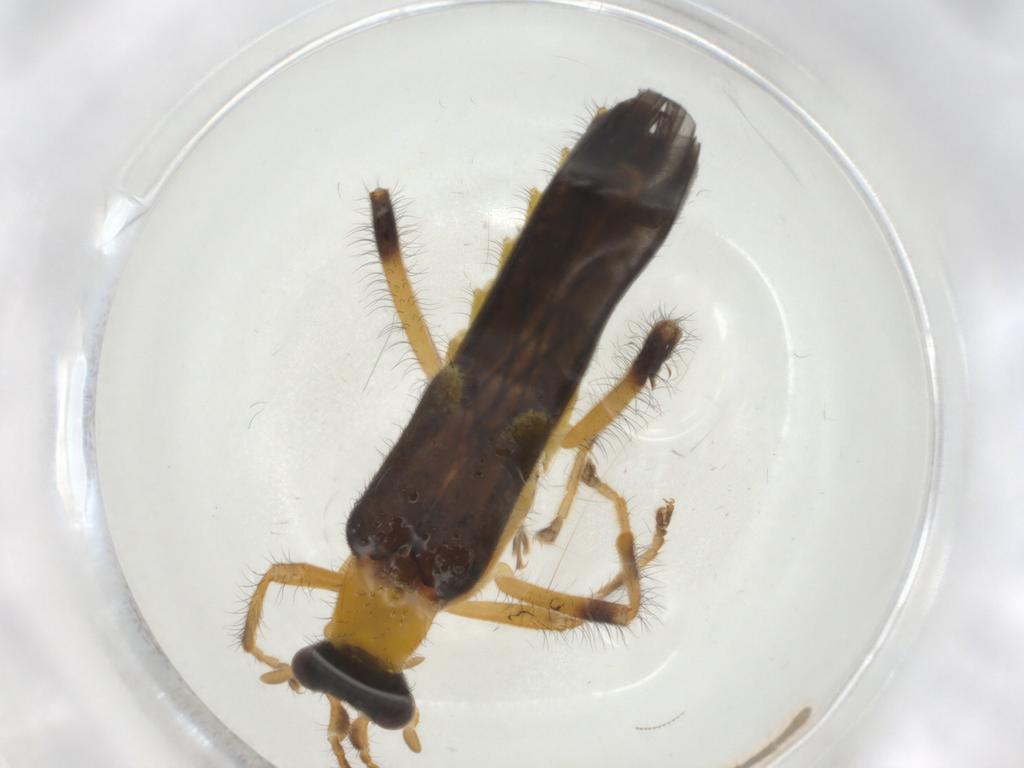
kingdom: Animalia
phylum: Arthropoda
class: Insecta
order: Coleoptera
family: Cantharidae
